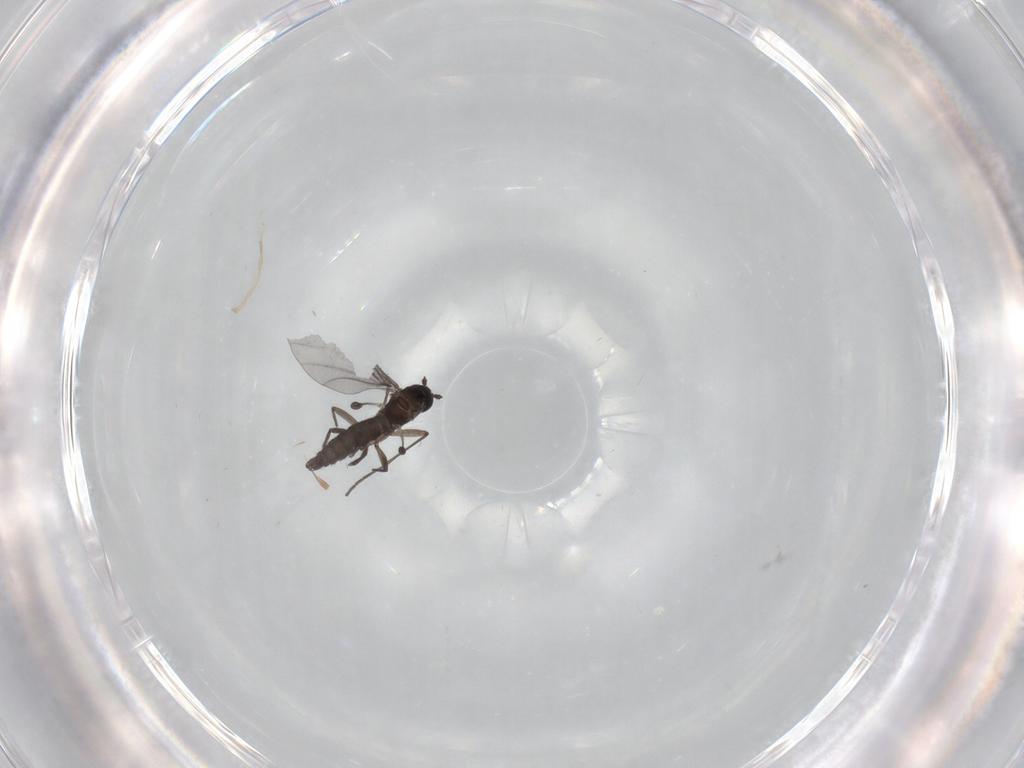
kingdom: Animalia
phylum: Arthropoda
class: Insecta
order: Diptera
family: Cecidomyiidae
